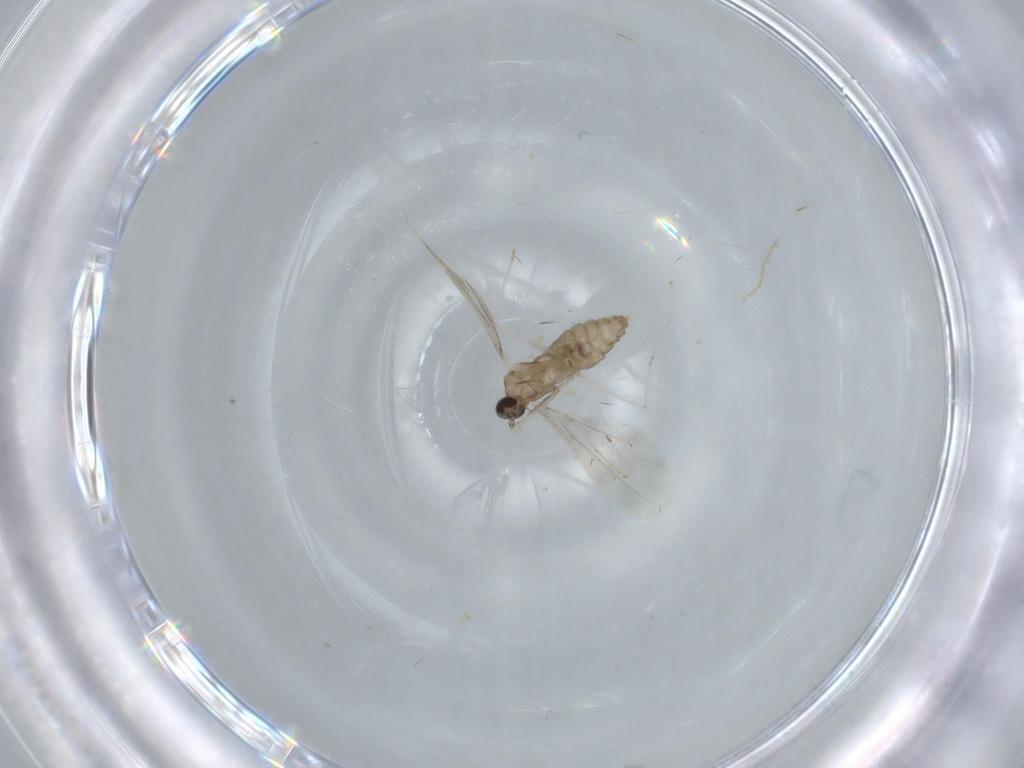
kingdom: Animalia
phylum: Arthropoda
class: Insecta
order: Diptera
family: Cecidomyiidae
